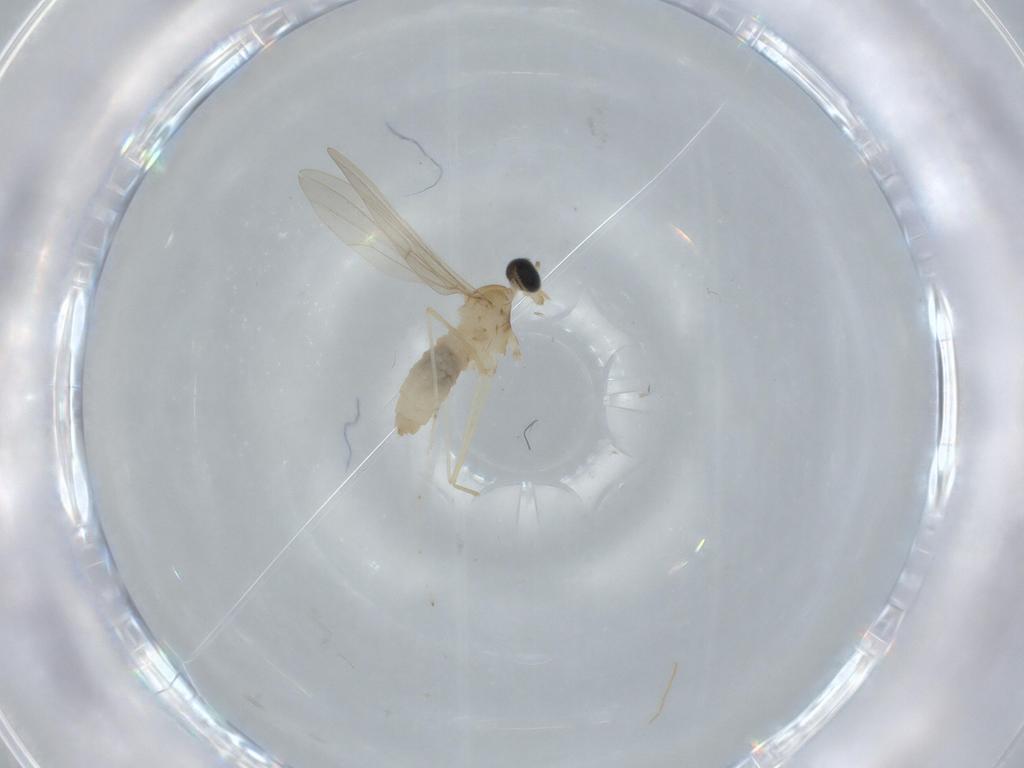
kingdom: Animalia
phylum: Arthropoda
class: Insecta
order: Diptera
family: Cecidomyiidae
